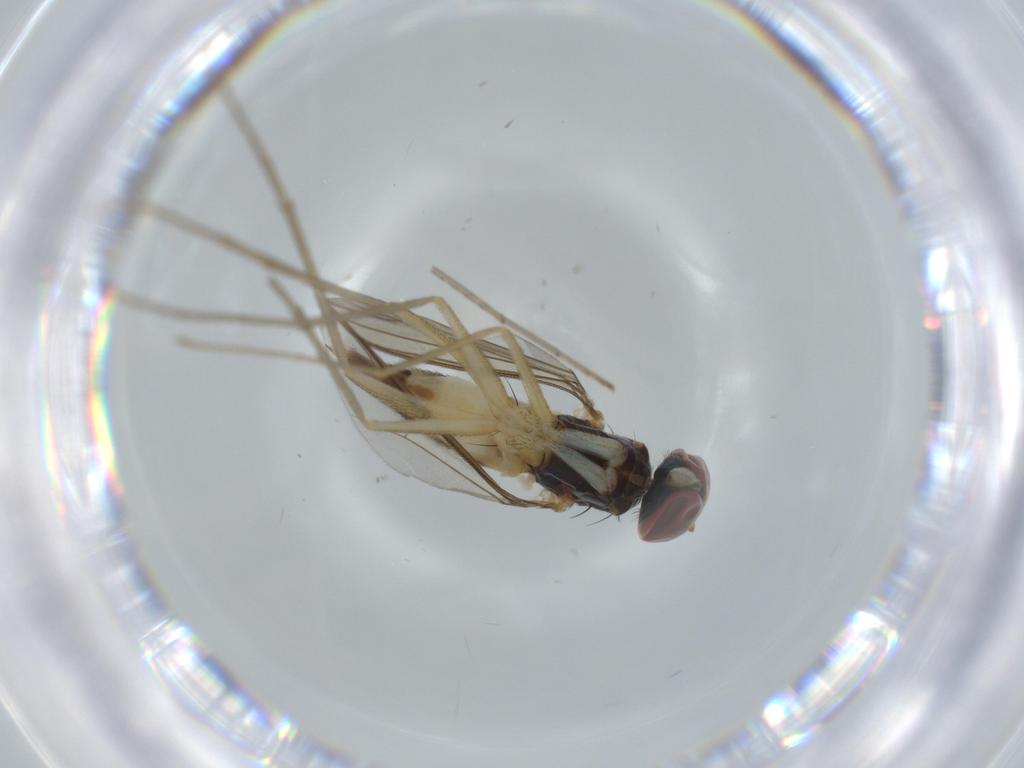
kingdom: Animalia
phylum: Arthropoda
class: Insecta
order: Diptera
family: Dolichopodidae
